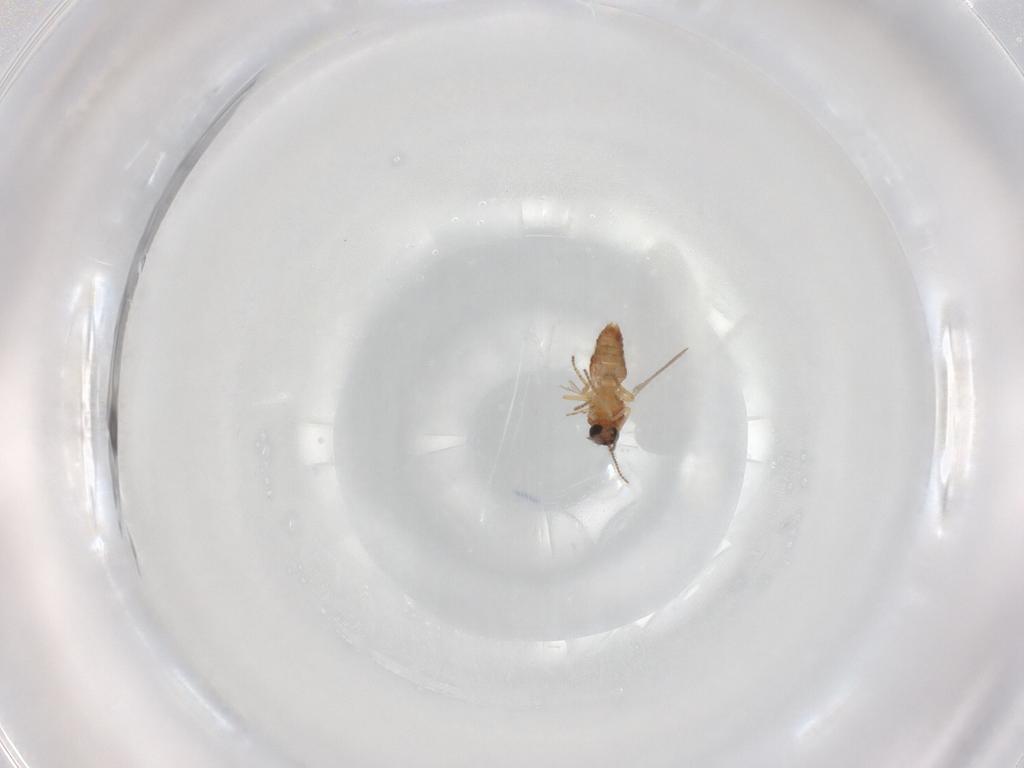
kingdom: Animalia
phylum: Arthropoda
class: Insecta
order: Diptera
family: Ceratopogonidae
